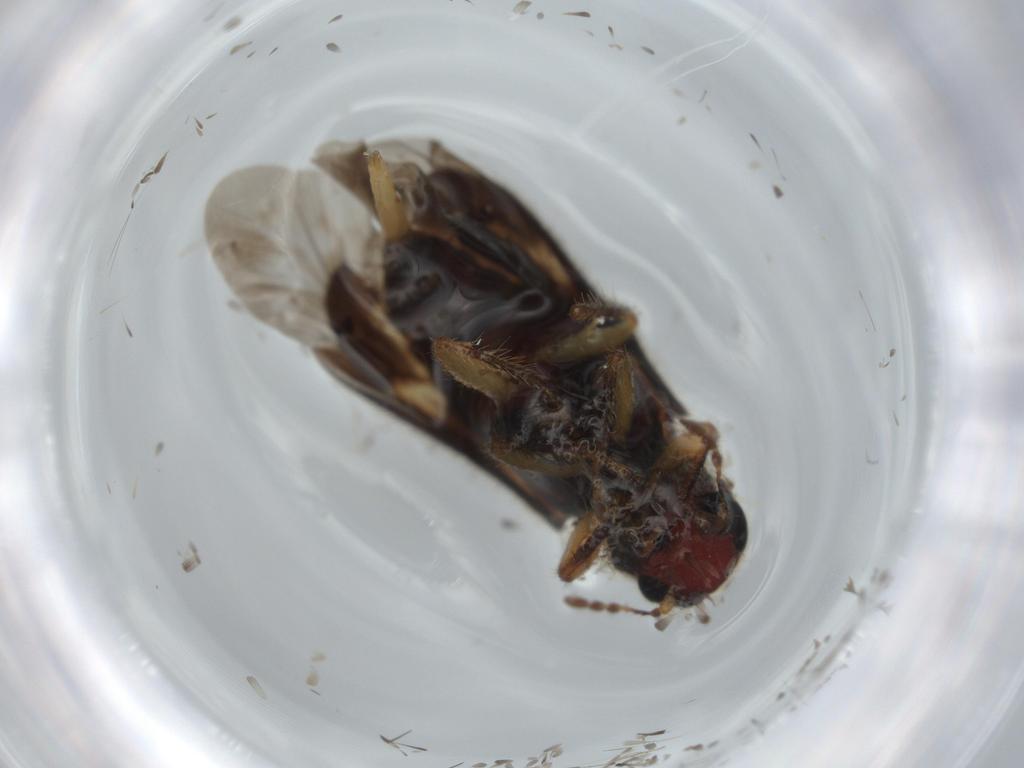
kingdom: Animalia
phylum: Arthropoda
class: Insecta
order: Coleoptera
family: Cleridae
